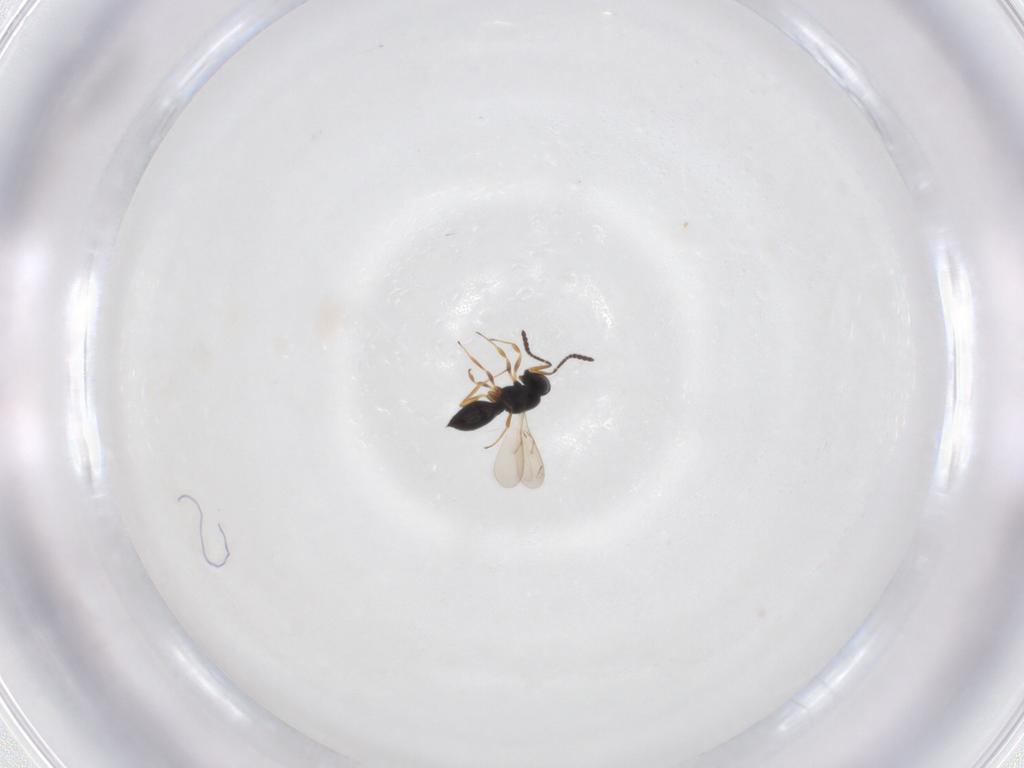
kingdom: Animalia
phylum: Arthropoda
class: Insecta
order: Hymenoptera
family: Scelionidae
